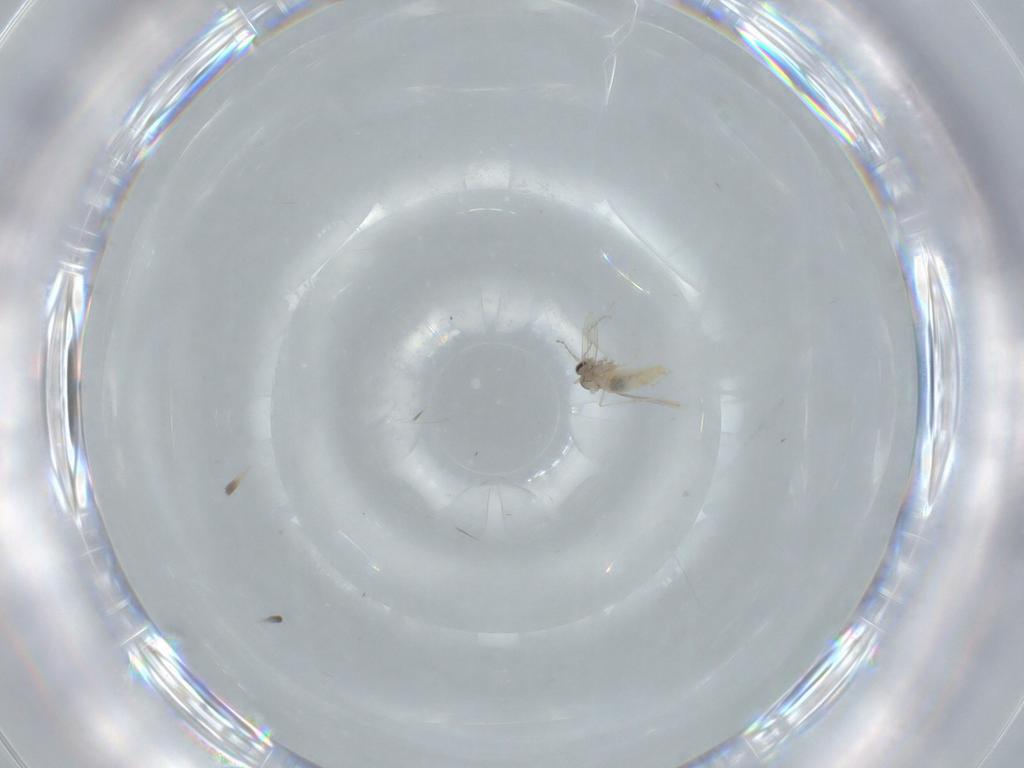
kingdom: Animalia
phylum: Arthropoda
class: Insecta
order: Diptera
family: Cecidomyiidae
